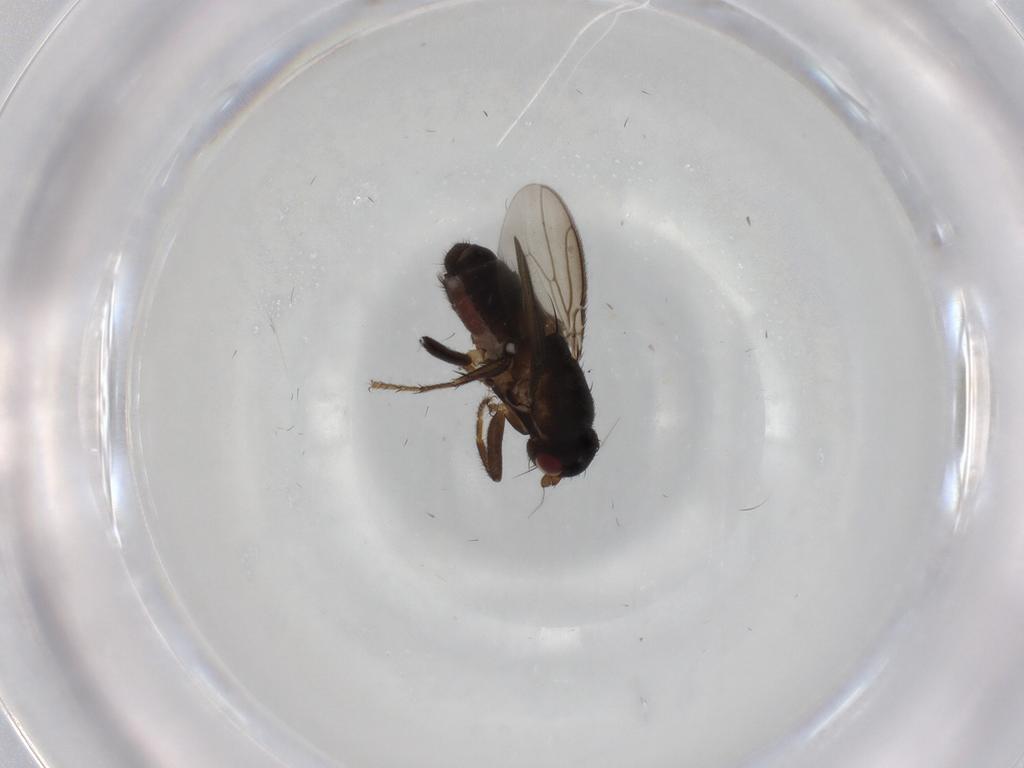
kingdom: Animalia
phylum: Arthropoda
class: Insecta
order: Diptera
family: Sphaeroceridae
